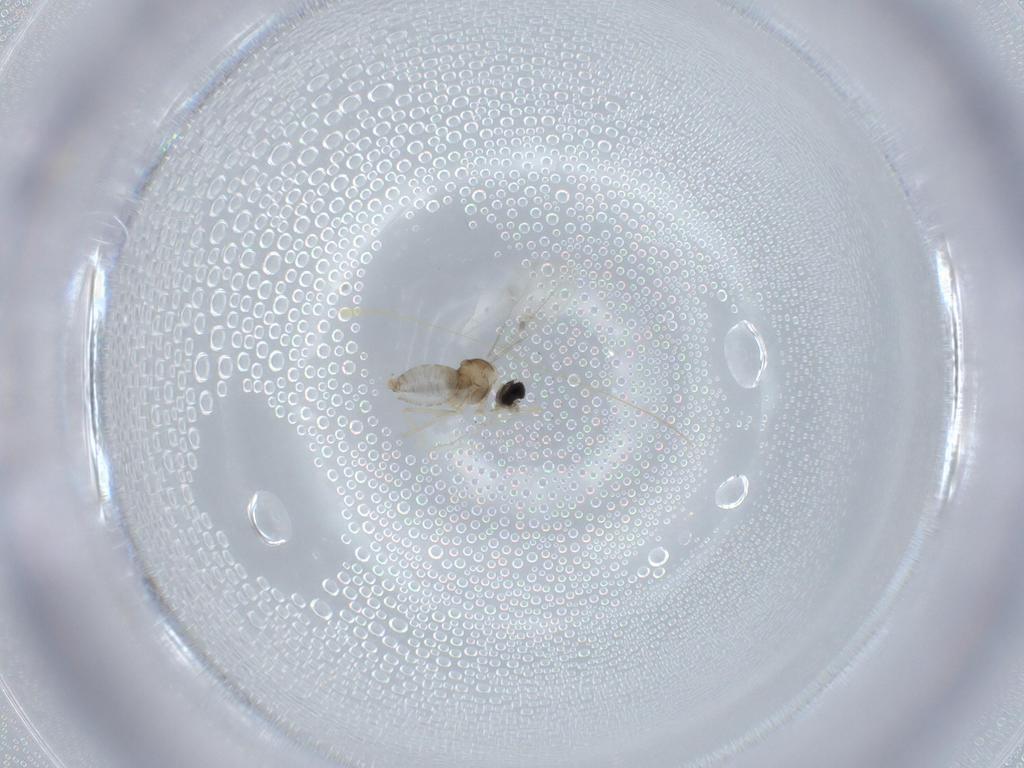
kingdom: Animalia
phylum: Arthropoda
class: Insecta
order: Diptera
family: Cecidomyiidae
